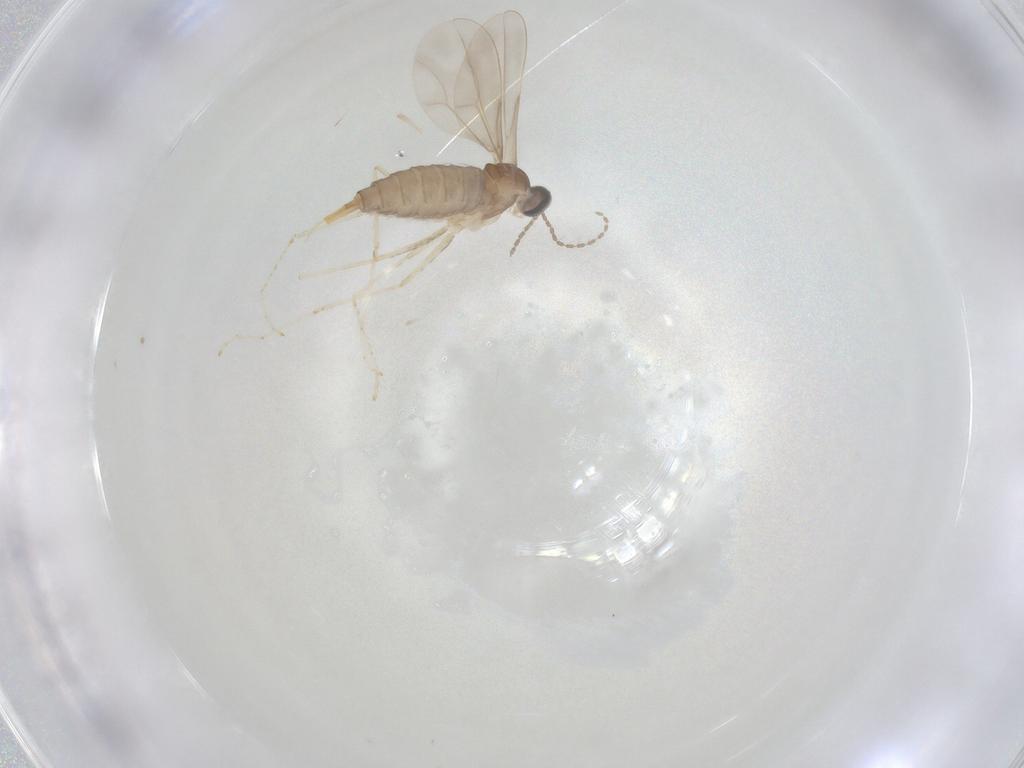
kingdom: Animalia
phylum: Arthropoda
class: Insecta
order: Diptera
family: Cecidomyiidae
